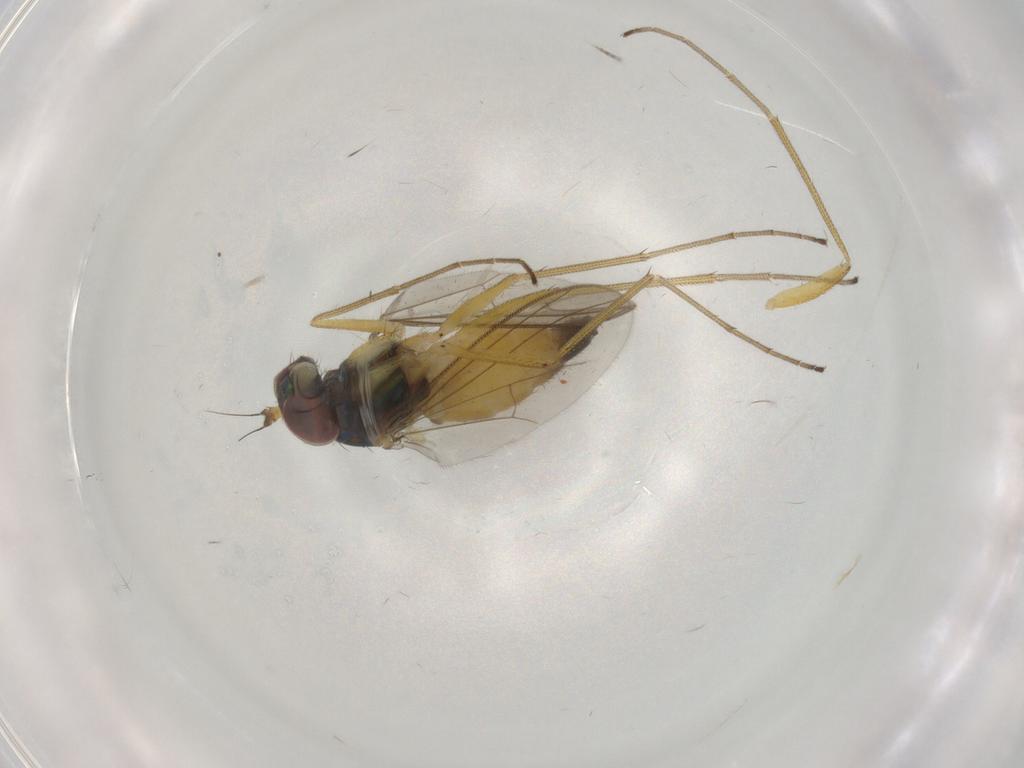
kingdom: Animalia
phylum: Arthropoda
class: Insecta
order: Diptera
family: Dolichopodidae
